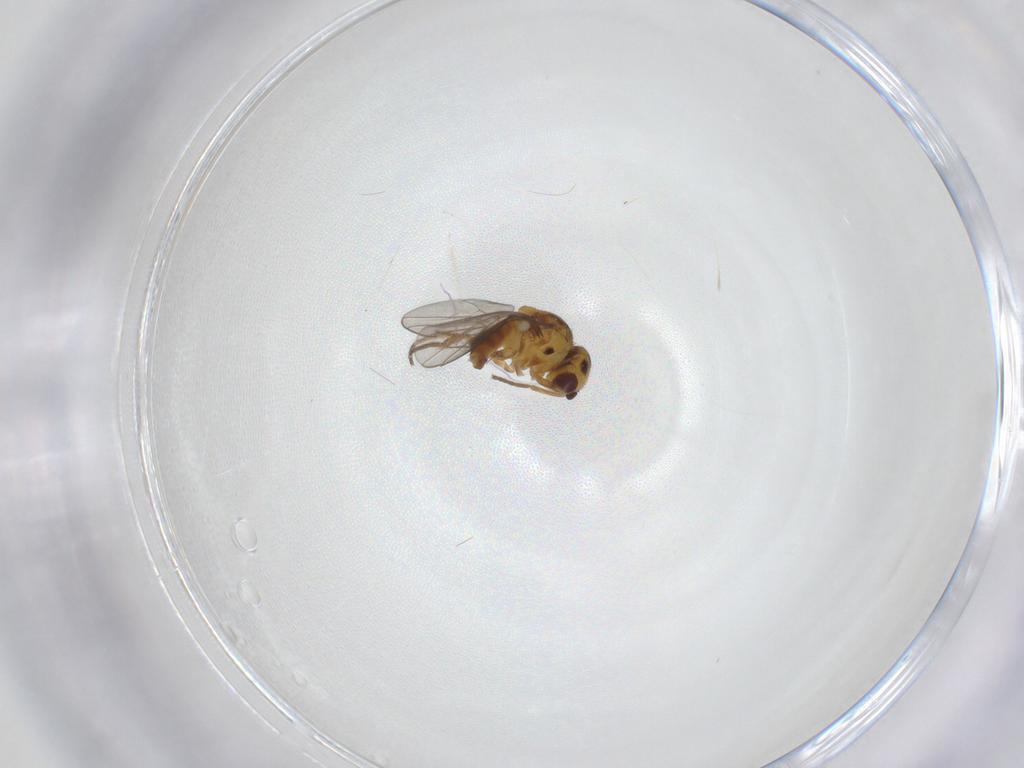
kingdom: Animalia
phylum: Arthropoda
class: Insecta
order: Diptera
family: Chloropidae
